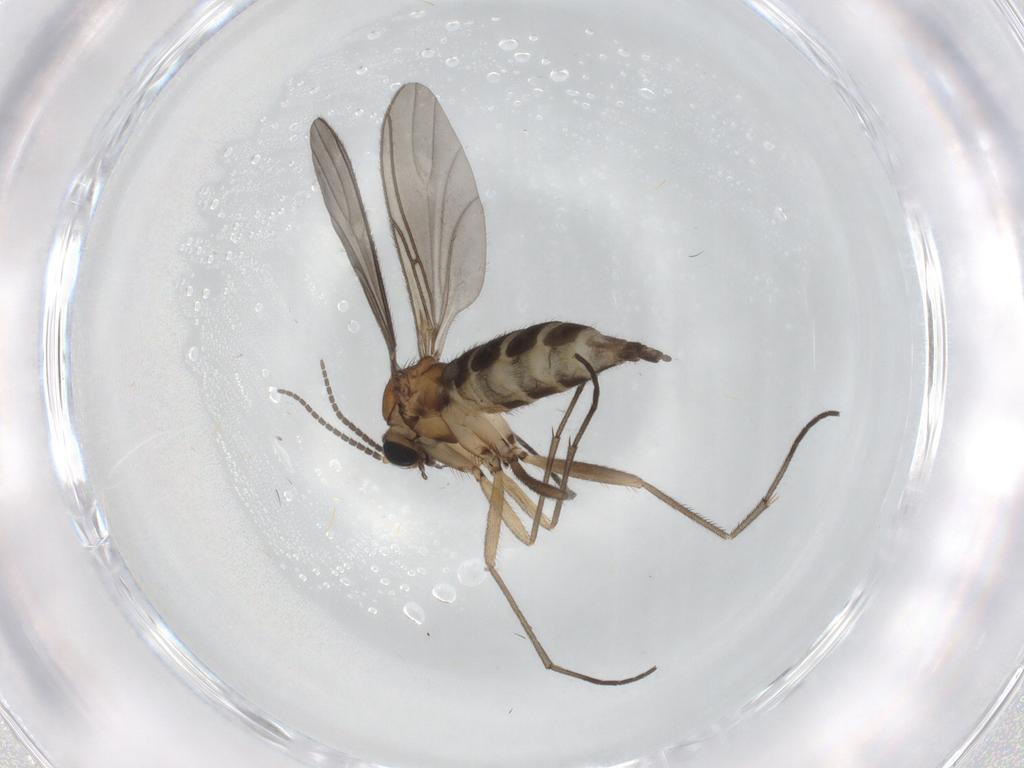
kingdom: Animalia
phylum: Arthropoda
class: Insecta
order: Diptera
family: Sciaridae
